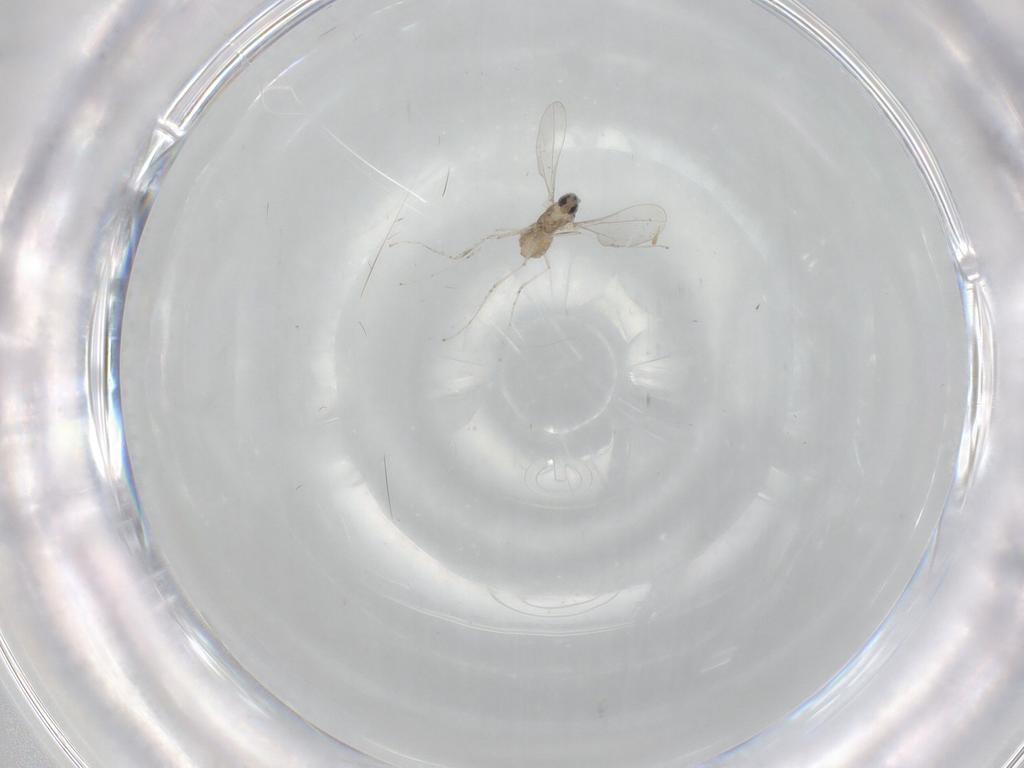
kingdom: Animalia
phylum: Arthropoda
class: Insecta
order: Diptera
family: Cecidomyiidae
